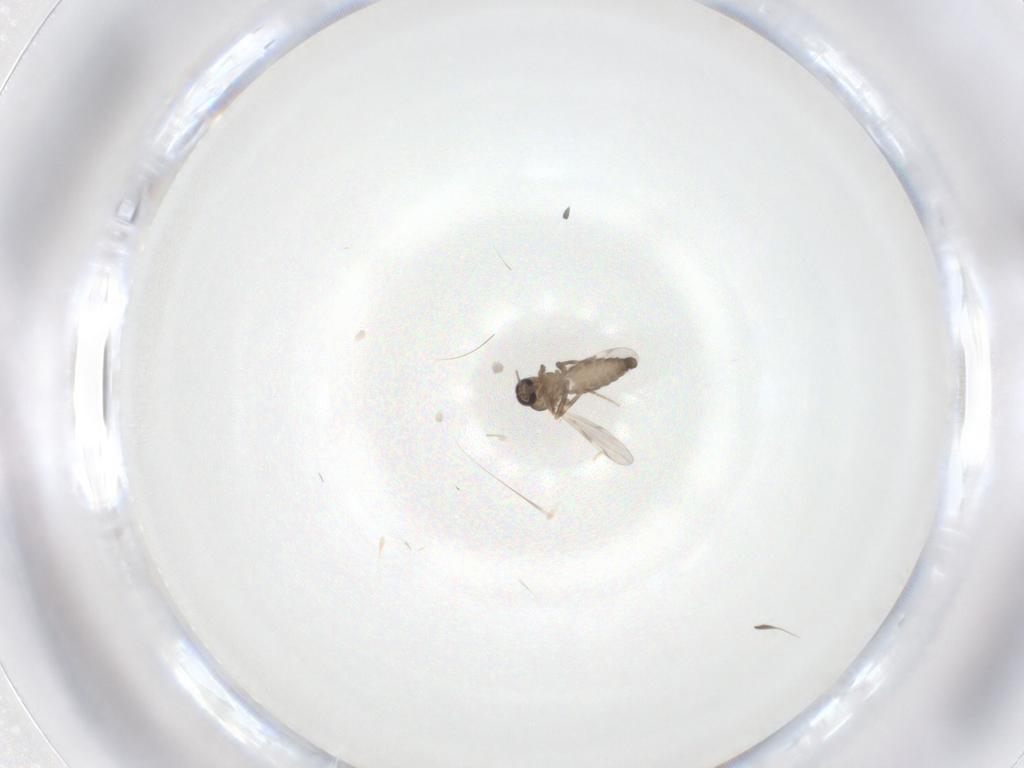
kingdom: Animalia
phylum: Arthropoda
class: Insecta
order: Diptera
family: Ceratopogonidae
